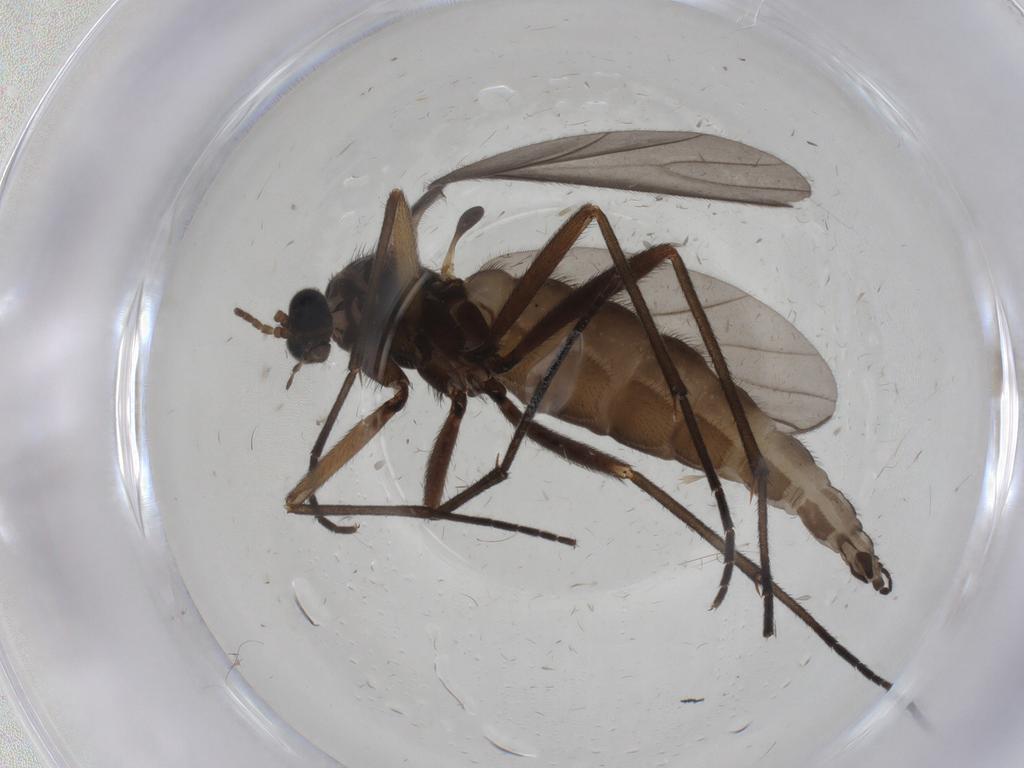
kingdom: Animalia
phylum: Arthropoda
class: Insecta
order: Diptera
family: Sciaridae
